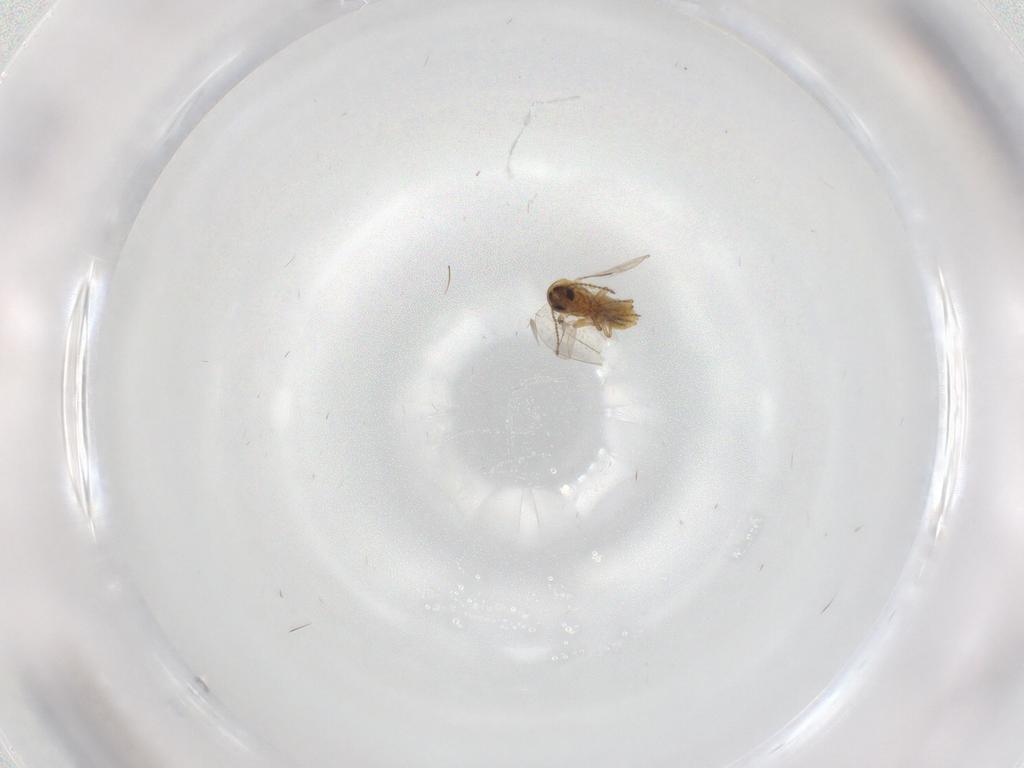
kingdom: Animalia
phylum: Arthropoda
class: Insecta
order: Diptera
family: Ceratopogonidae
